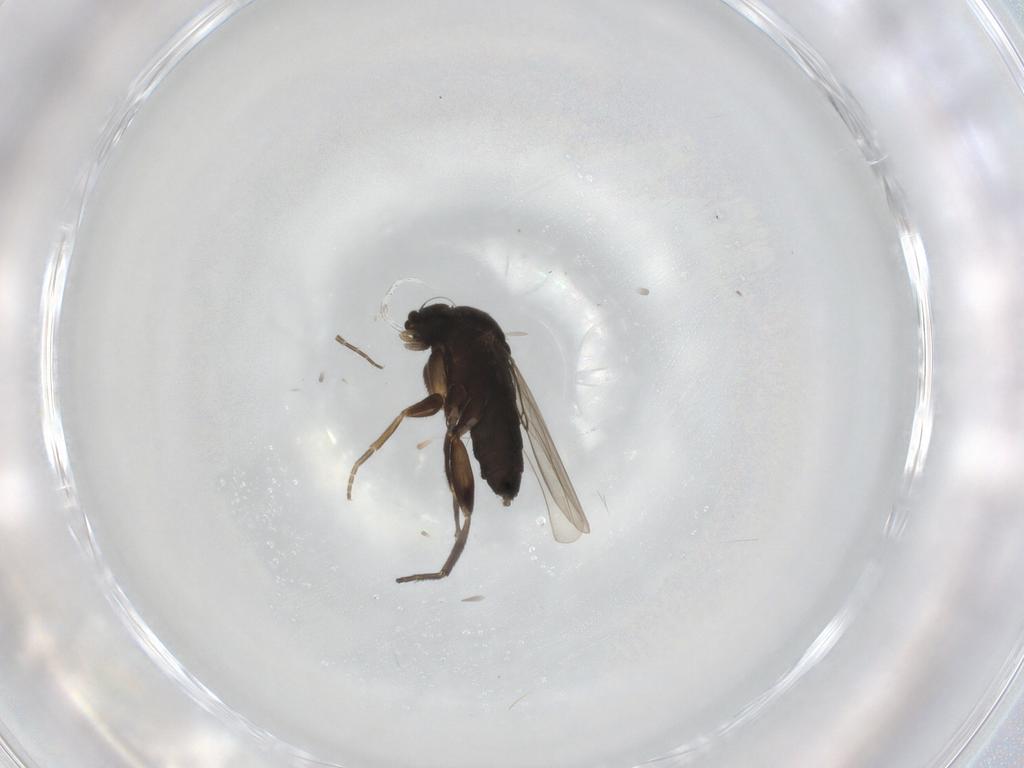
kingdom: Animalia
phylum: Arthropoda
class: Insecta
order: Diptera
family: Phoridae
